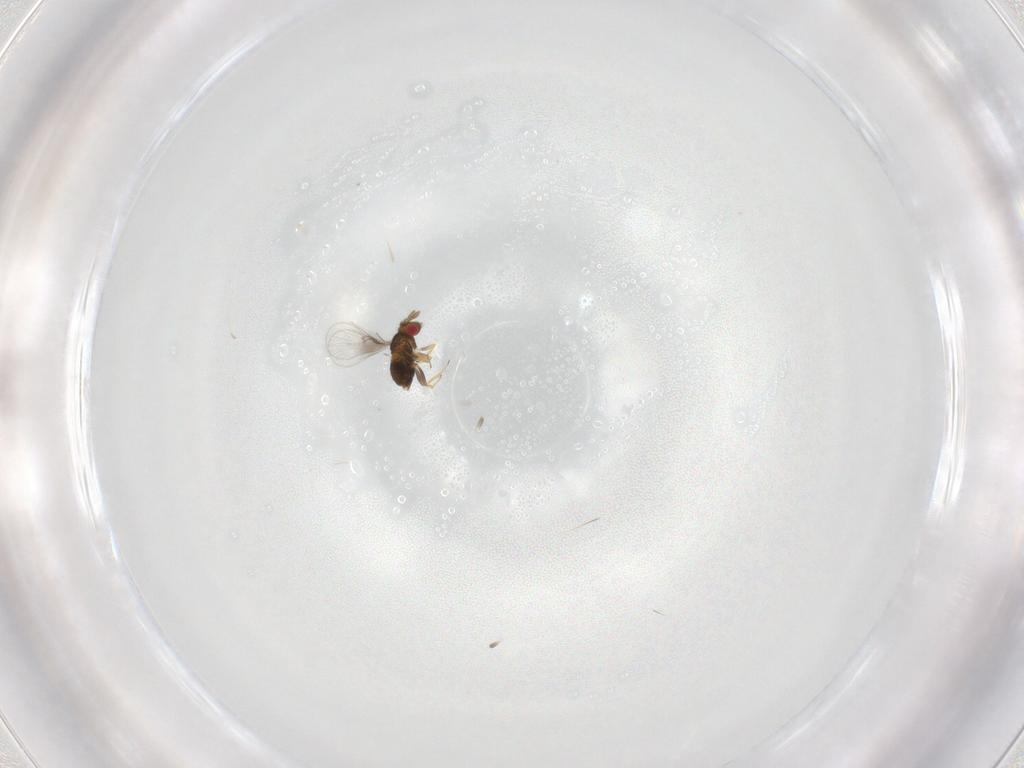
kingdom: Animalia
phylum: Arthropoda
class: Insecta
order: Hymenoptera
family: Trichogrammatidae
